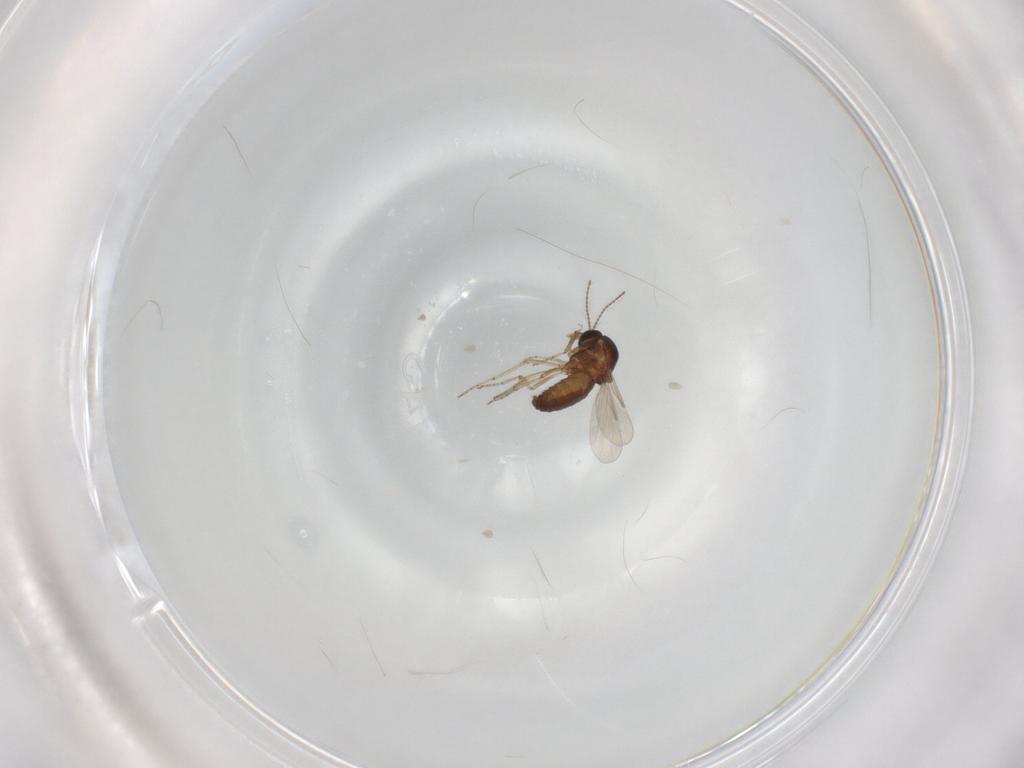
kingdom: Animalia
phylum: Arthropoda
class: Insecta
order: Diptera
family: Ceratopogonidae
